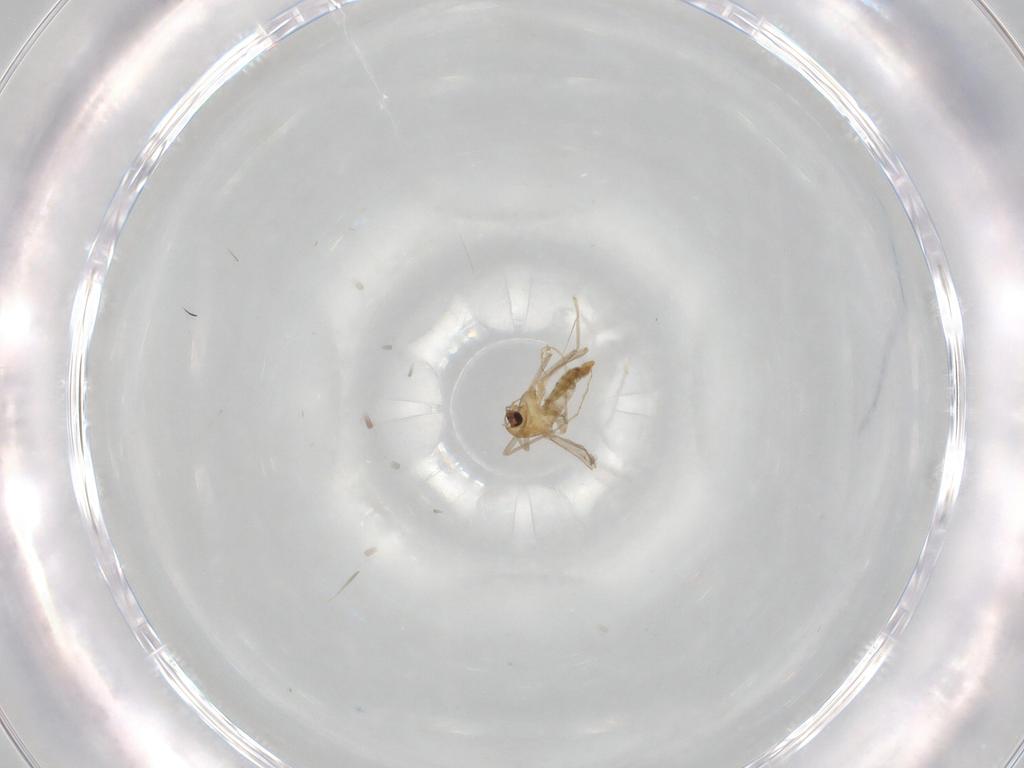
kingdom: Animalia
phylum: Arthropoda
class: Insecta
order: Diptera
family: Chironomidae
